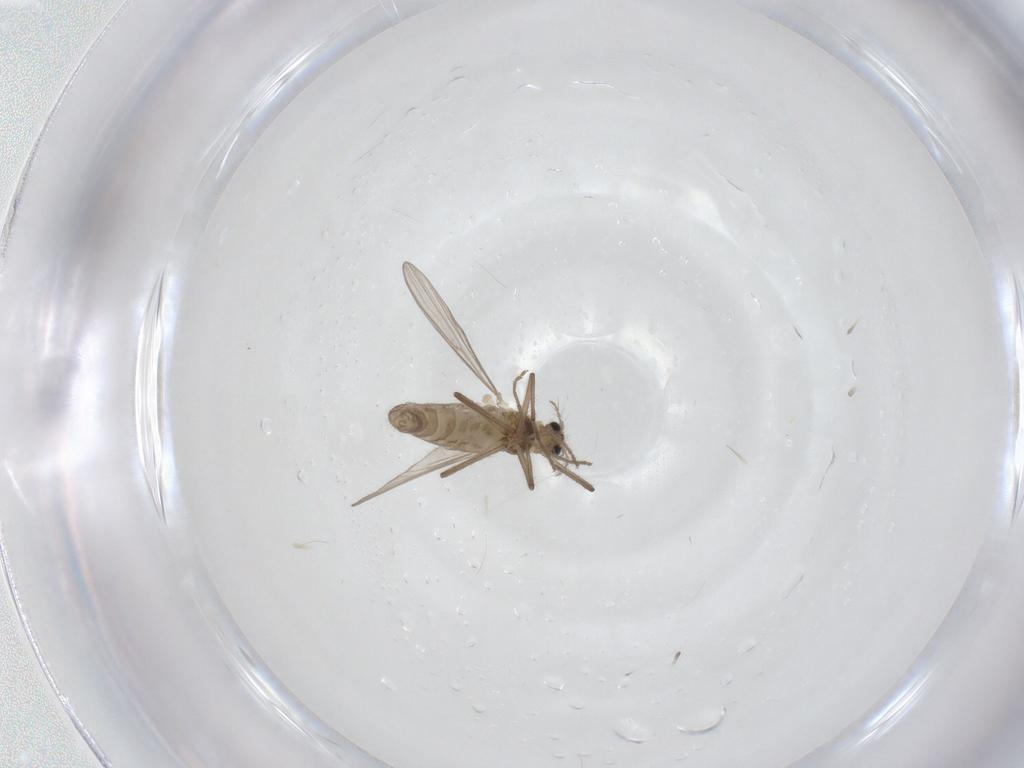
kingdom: Animalia
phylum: Arthropoda
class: Insecta
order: Diptera
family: Chironomidae
